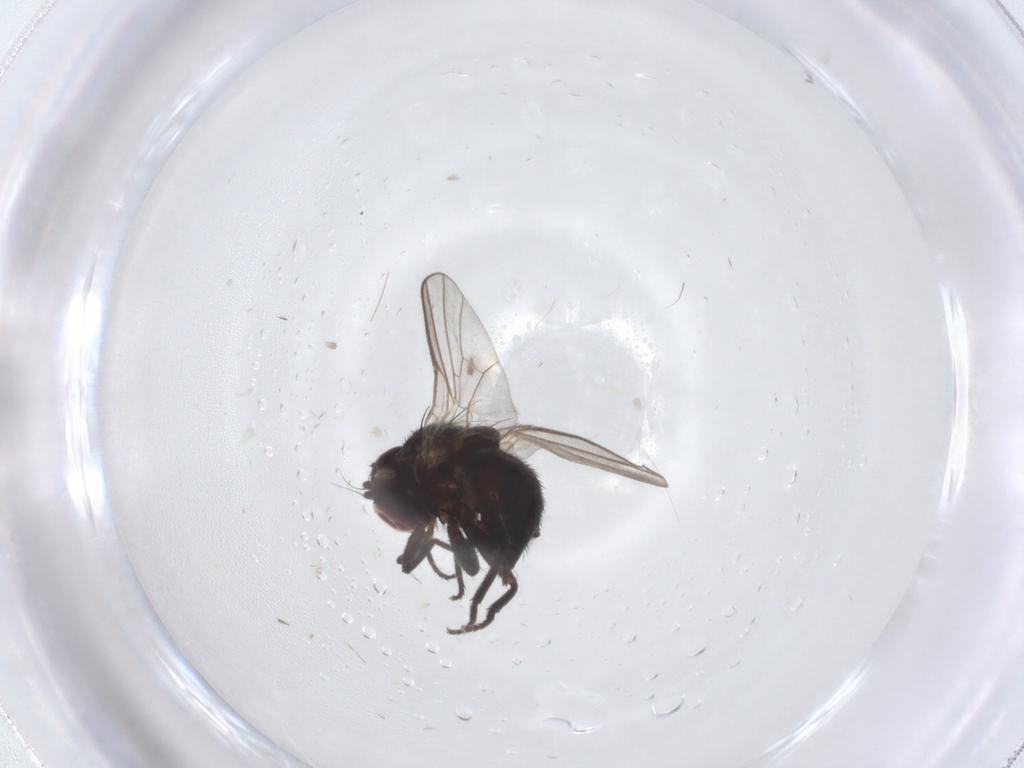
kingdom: Animalia
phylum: Arthropoda
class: Insecta
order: Diptera
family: Agromyzidae
